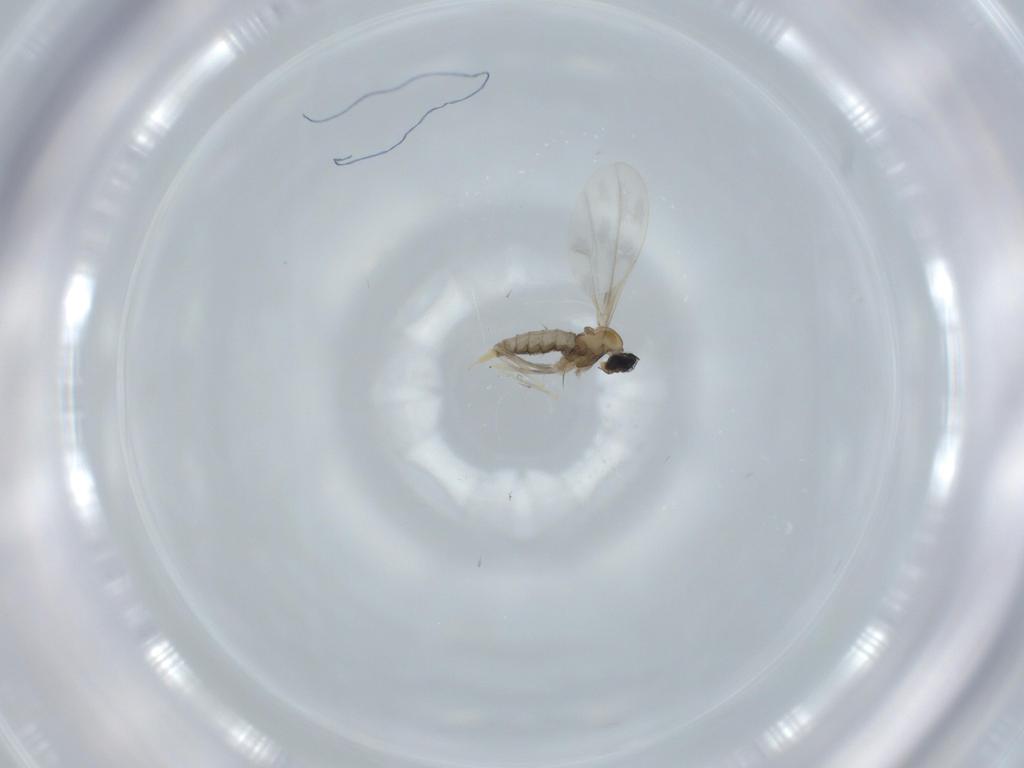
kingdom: Animalia
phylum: Arthropoda
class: Insecta
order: Diptera
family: Cecidomyiidae
